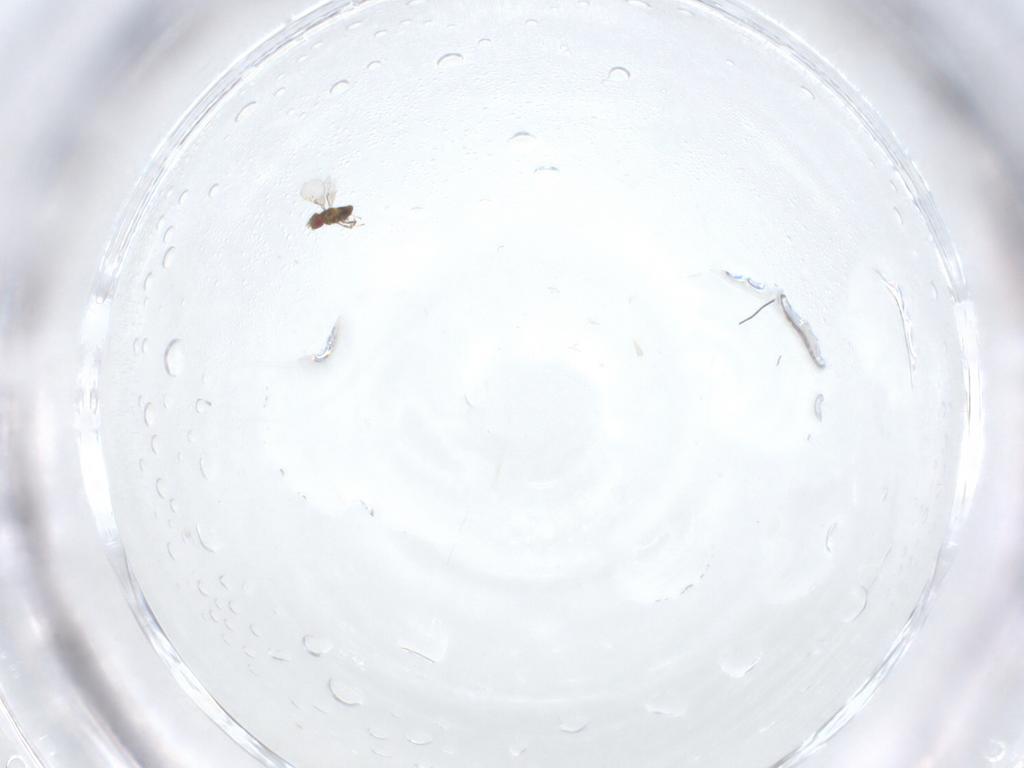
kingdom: Animalia
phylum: Arthropoda
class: Insecta
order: Hymenoptera
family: Trichogrammatidae
